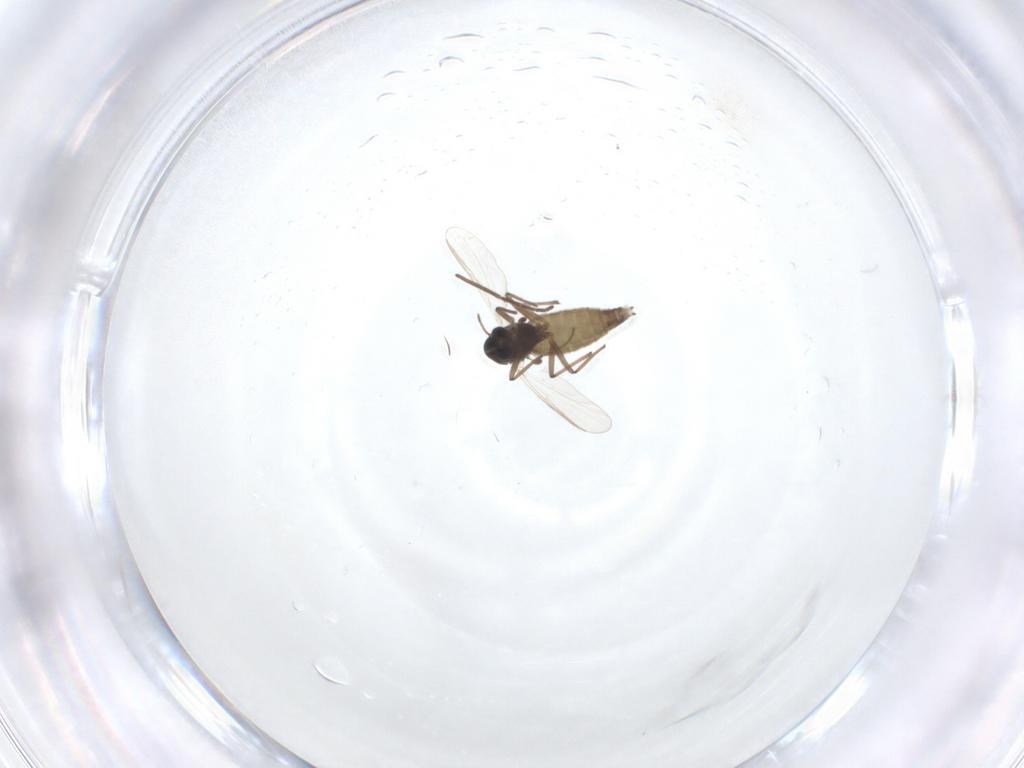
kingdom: Animalia
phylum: Arthropoda
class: Insecta
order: Diptera
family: Chironomidae
